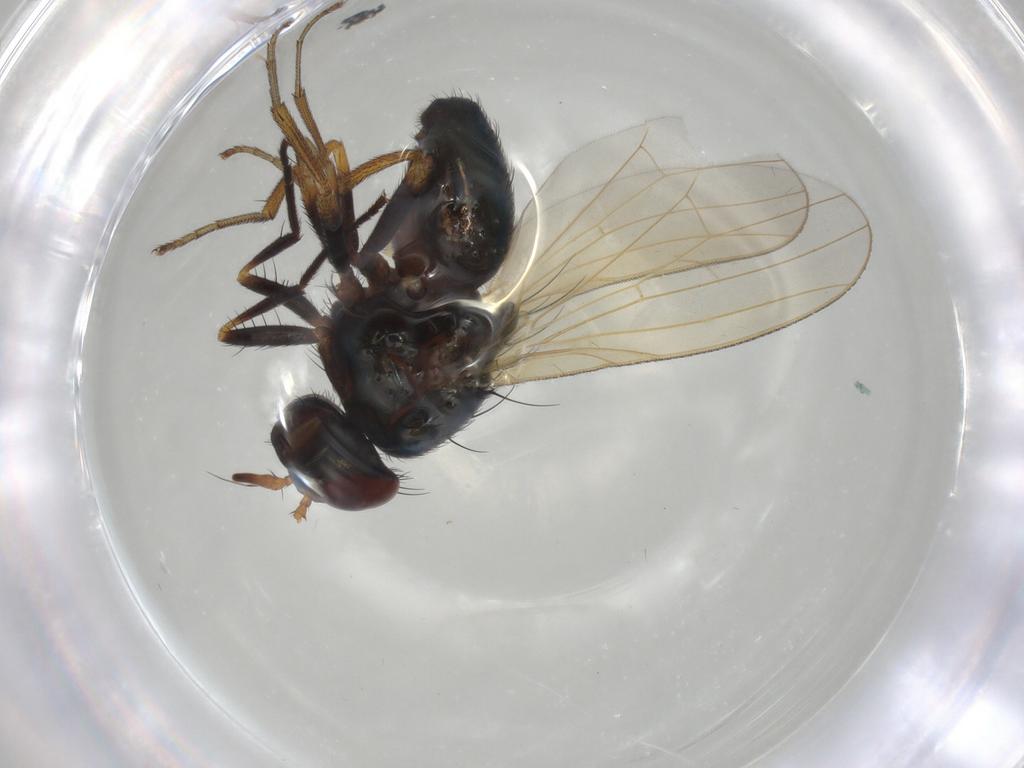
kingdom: Animalia
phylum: Arthropoda
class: Insecta
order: Diptera
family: Lauxaniidae
